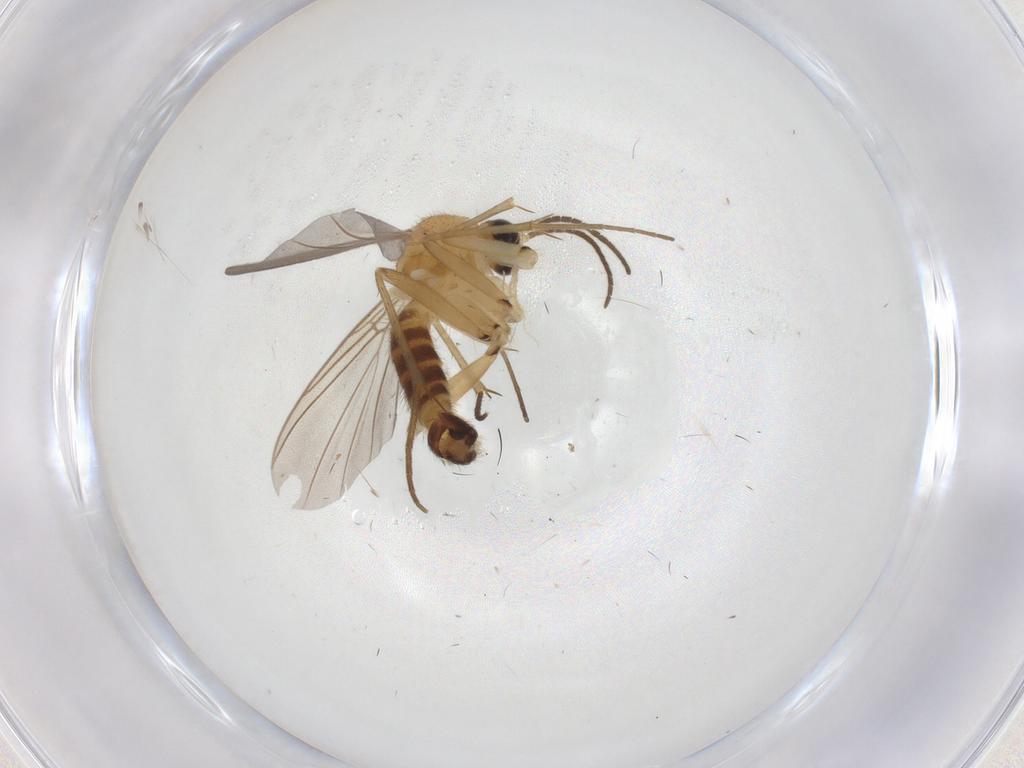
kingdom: Animalia
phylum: Arthropoda
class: Insecta
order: Diptera
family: Mycetophilidae
